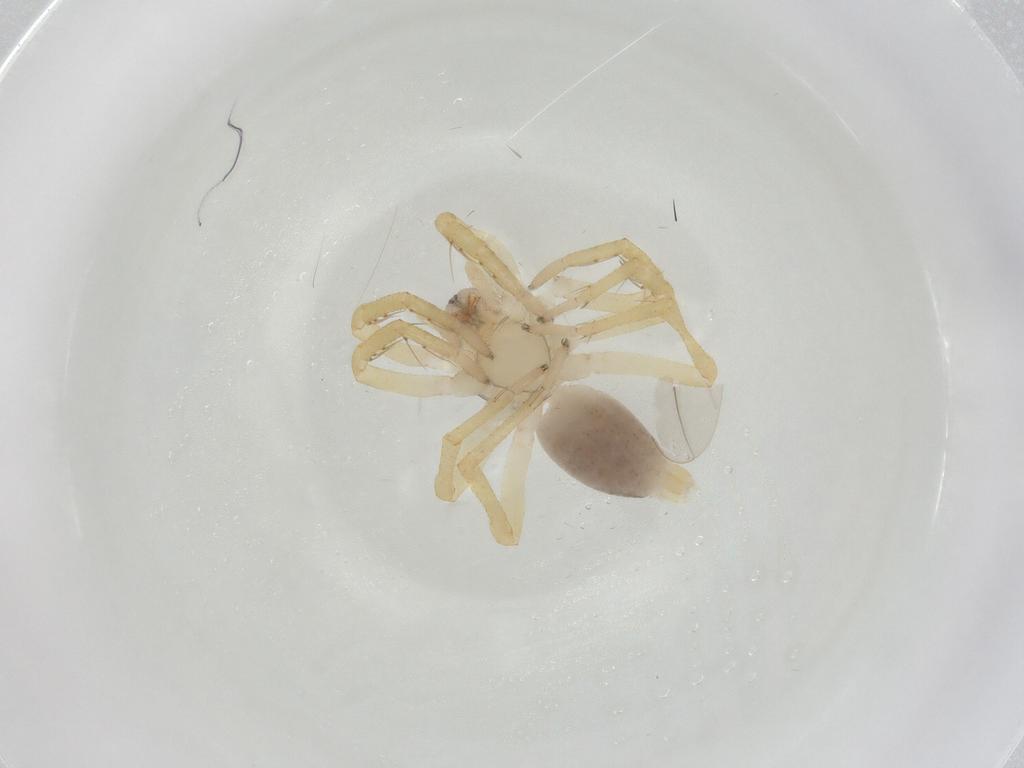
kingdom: Animalia
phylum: Arthropoda
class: Arachnida
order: Araneae
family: Clubionidae
